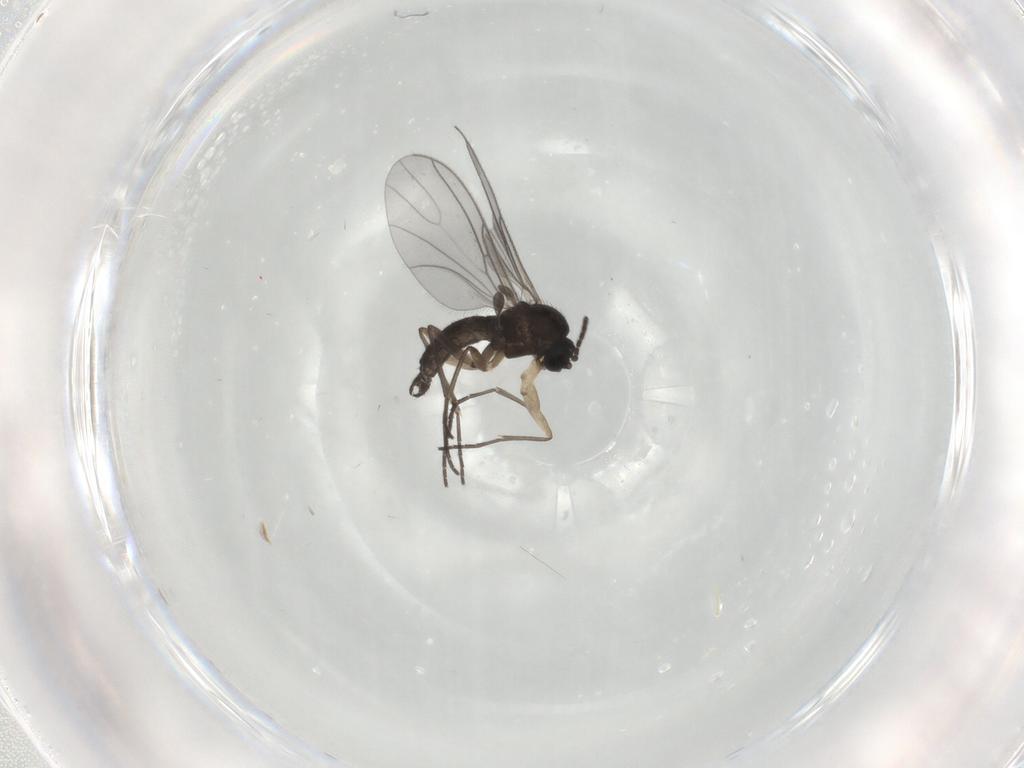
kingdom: Animalia
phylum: Arthropoda
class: Insecta
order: Diptera
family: Sciaridae
